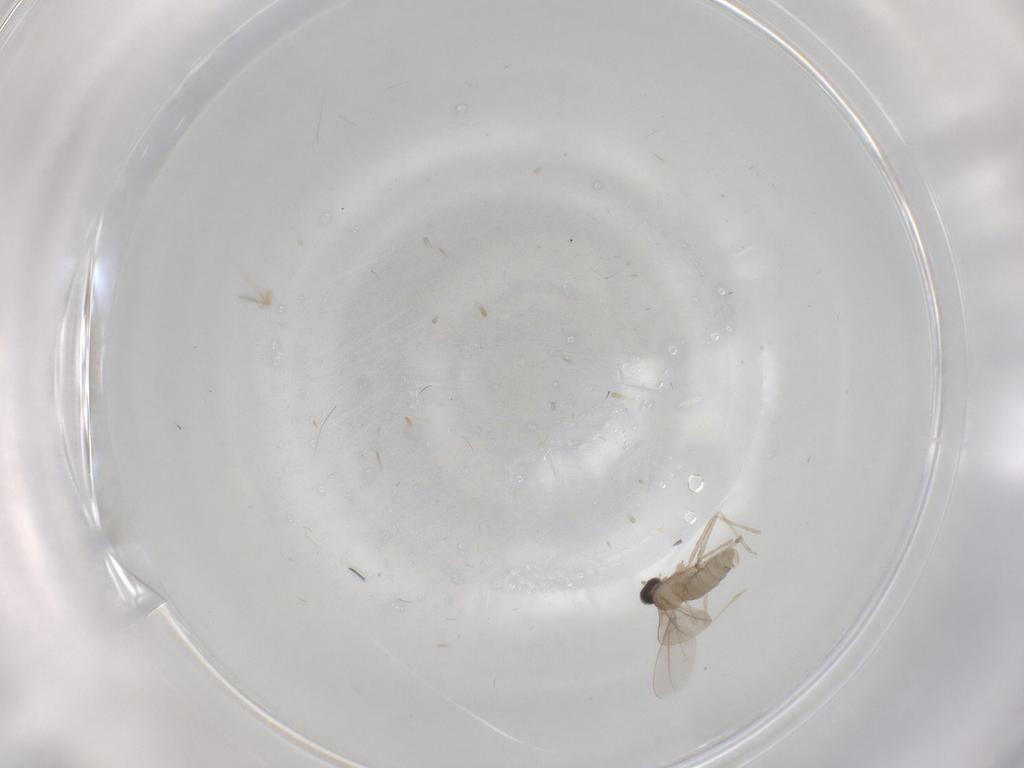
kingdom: Animalia
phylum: Arthropoda
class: Insecta
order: Diptera
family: Cecidomyiidae
